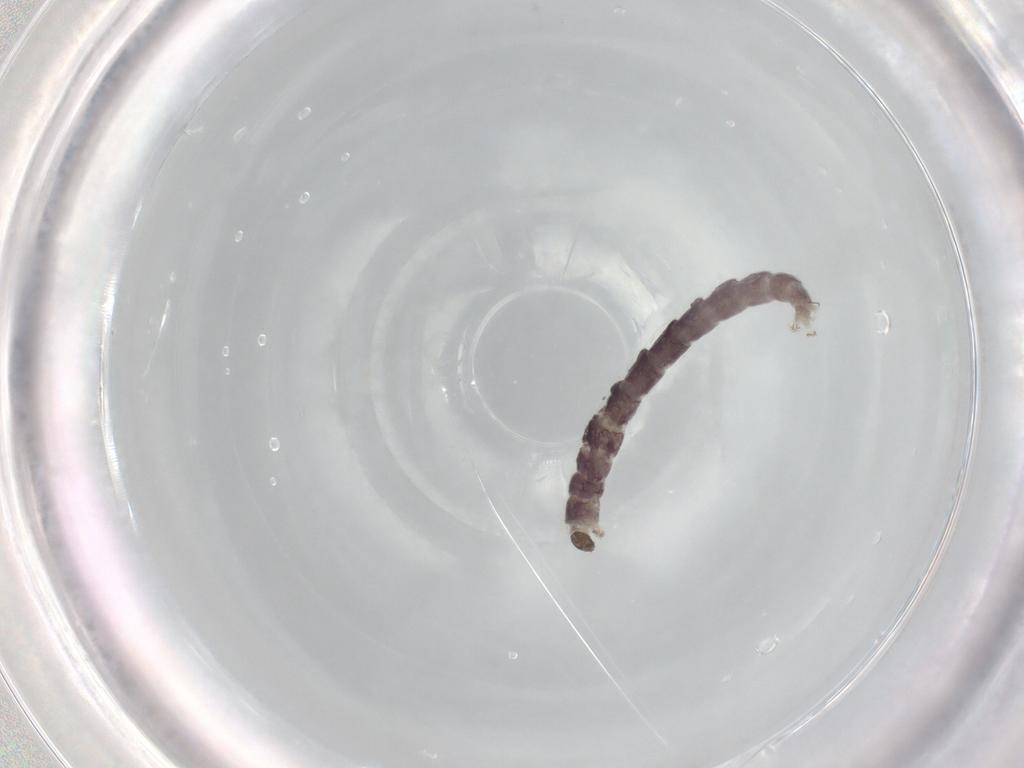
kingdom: Animalia
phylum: Arthropoda
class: Insecta
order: Diptera
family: Chironomidae
